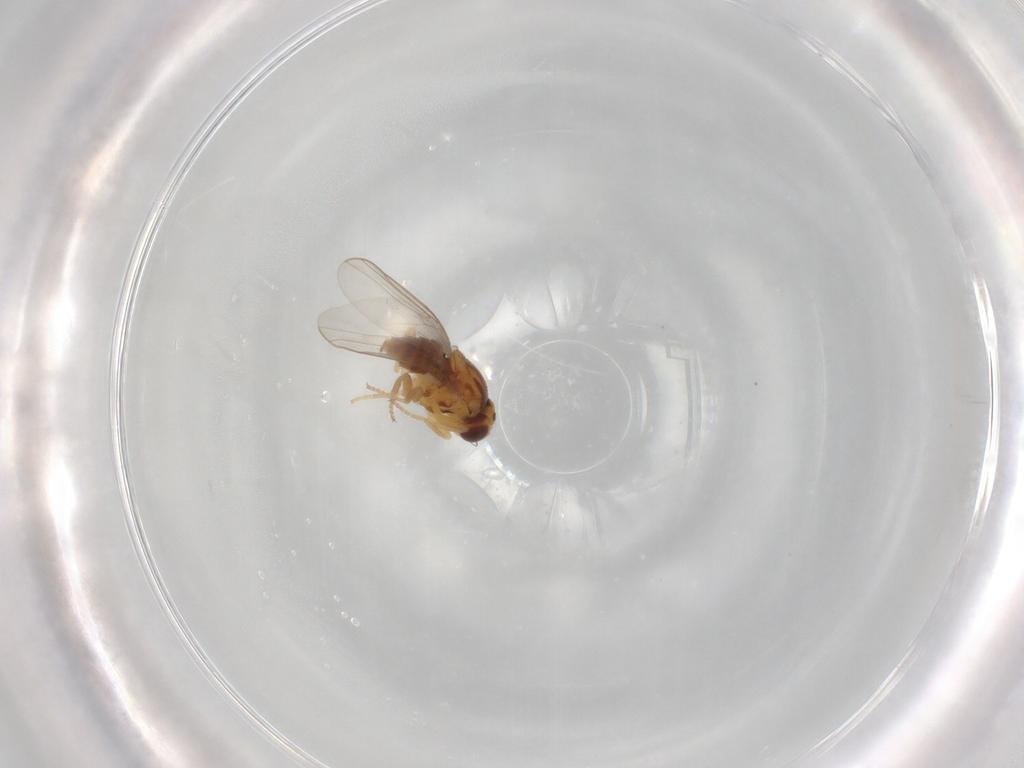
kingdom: Animalia
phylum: Arthropoda
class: Insecta
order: Diptera
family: Chloropidae
